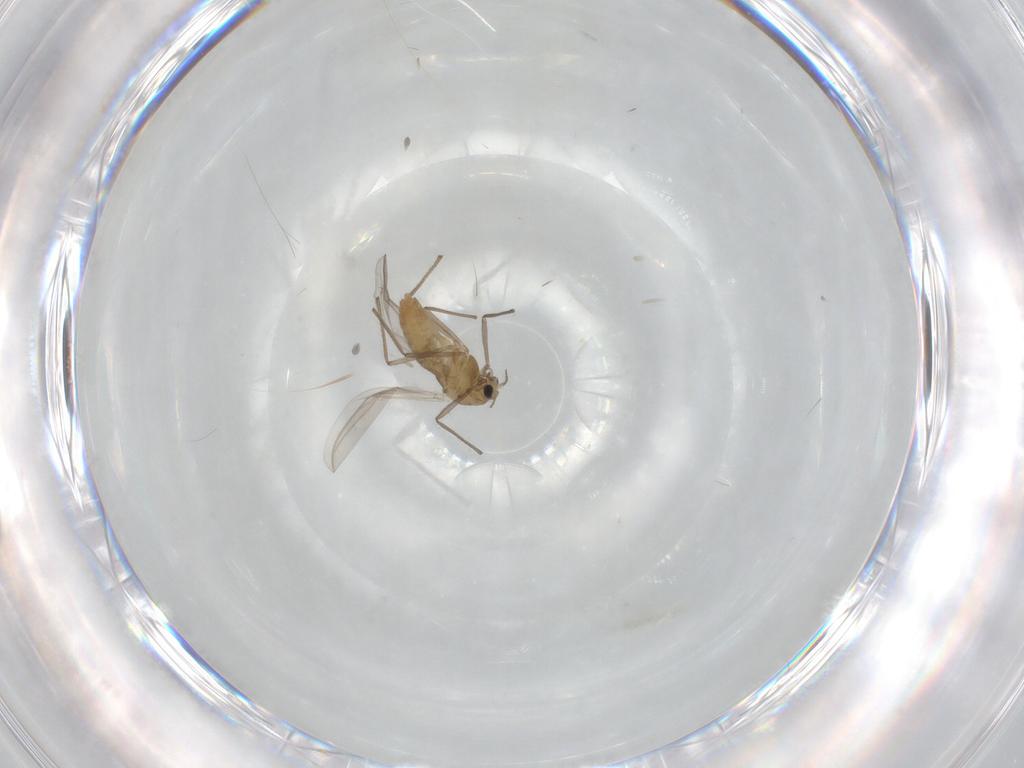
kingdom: Animalia
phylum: Arthropoda
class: Insecta
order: Diptera
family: Chironomidae
